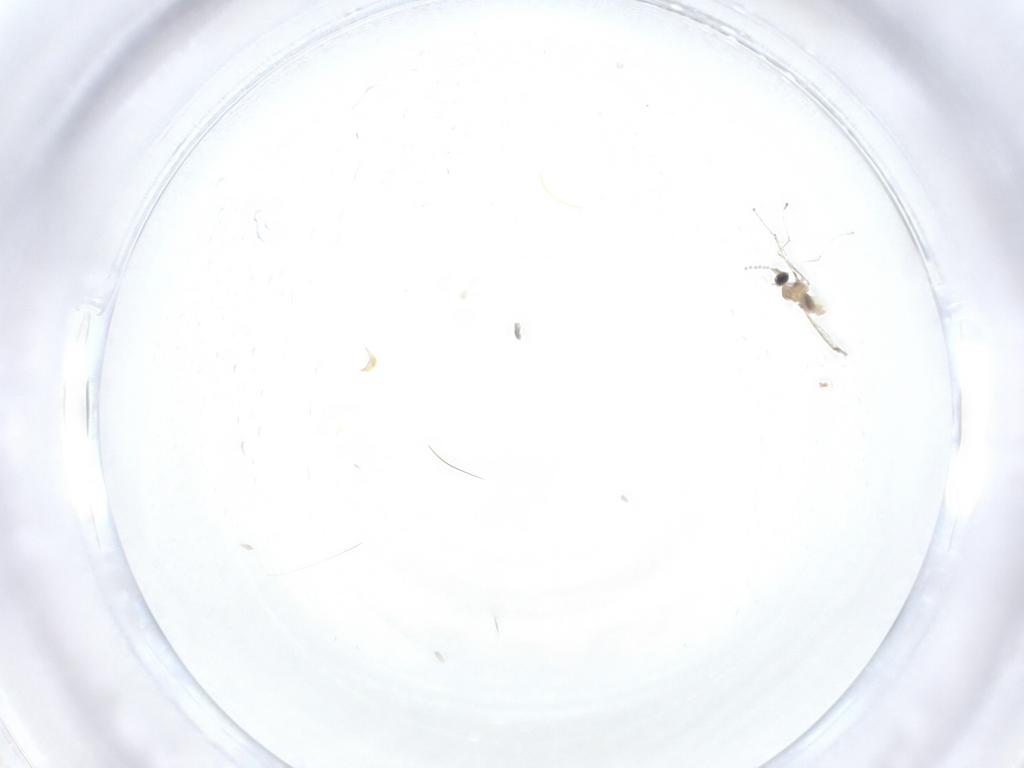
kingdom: Animalia
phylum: Arthropoda
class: Insecta
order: Diptera
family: Cecidomyiidae
